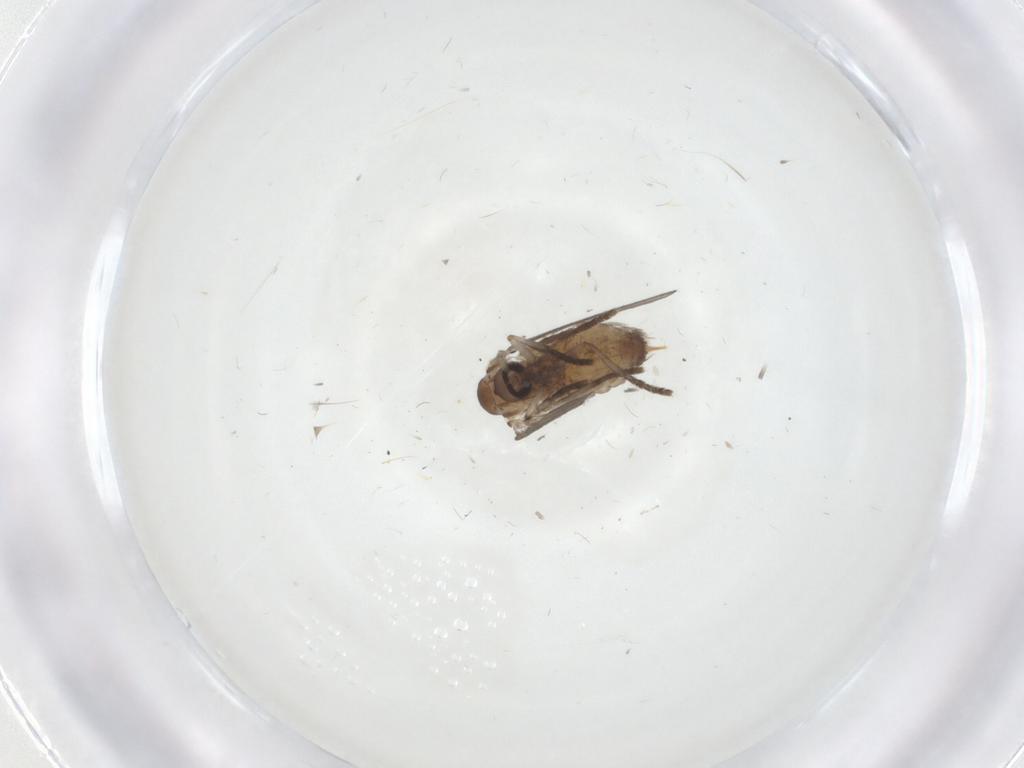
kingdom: Animalia
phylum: Arthropoda
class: Insecta
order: Diptera
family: Psychodidae
